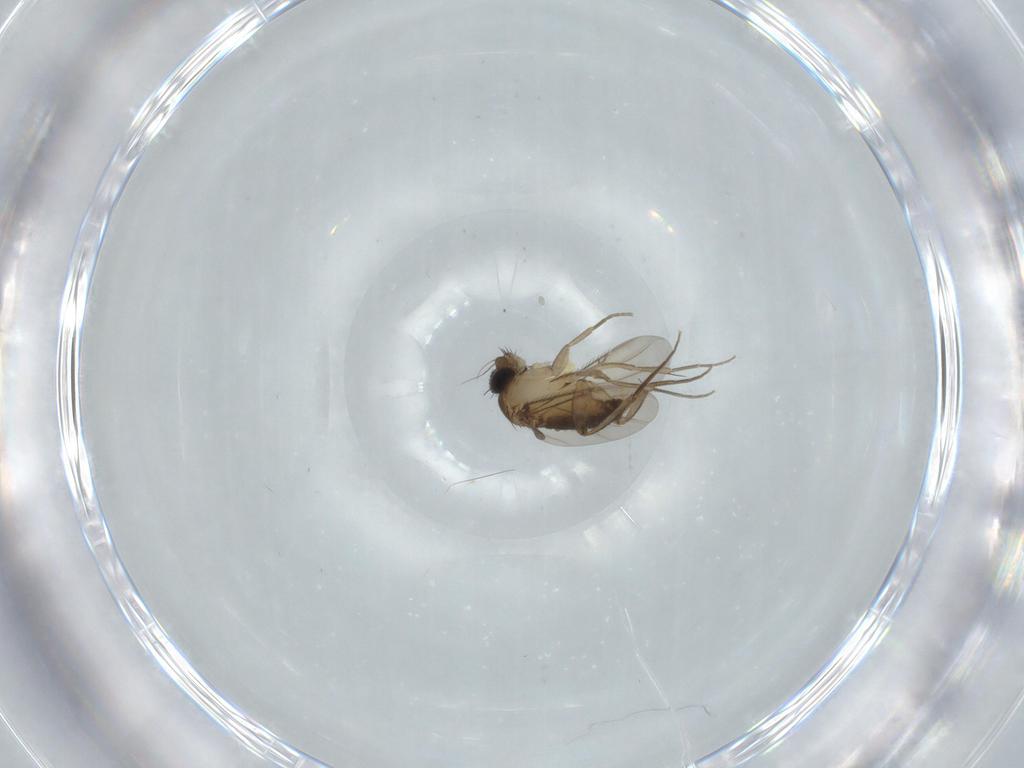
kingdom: Animalia
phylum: Arthropoda
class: Insecta
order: Diptera
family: Phoridae
